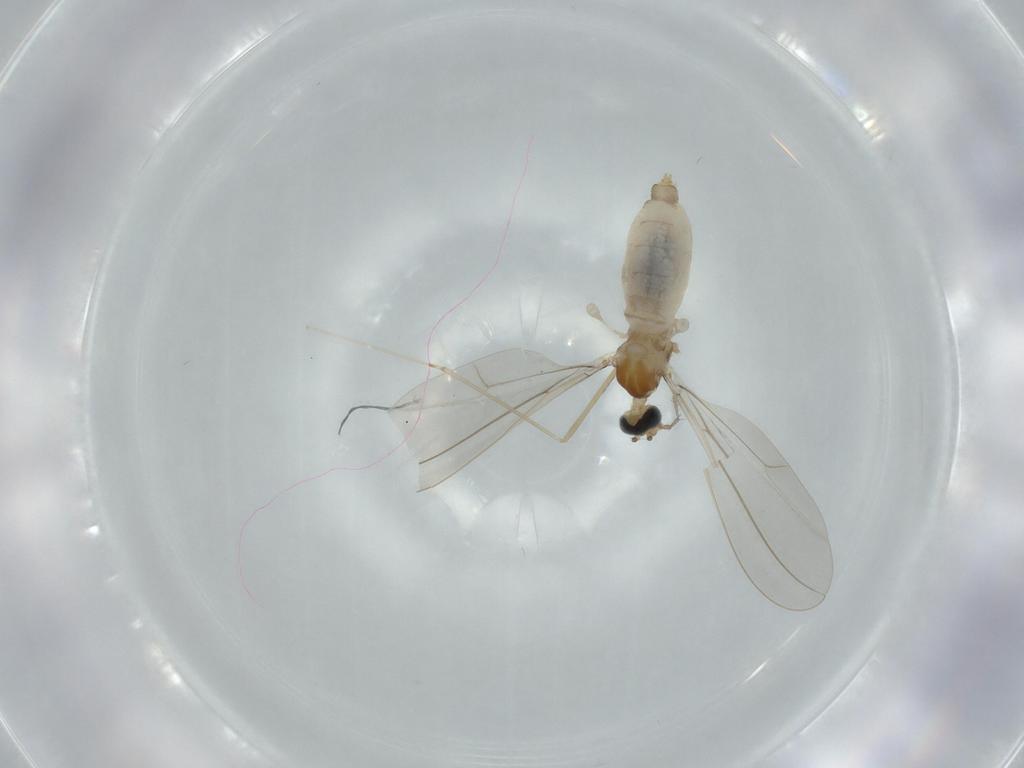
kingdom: Animalia
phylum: Arthropoda
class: Insecta
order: Diptera
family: Cecidomyiidae
